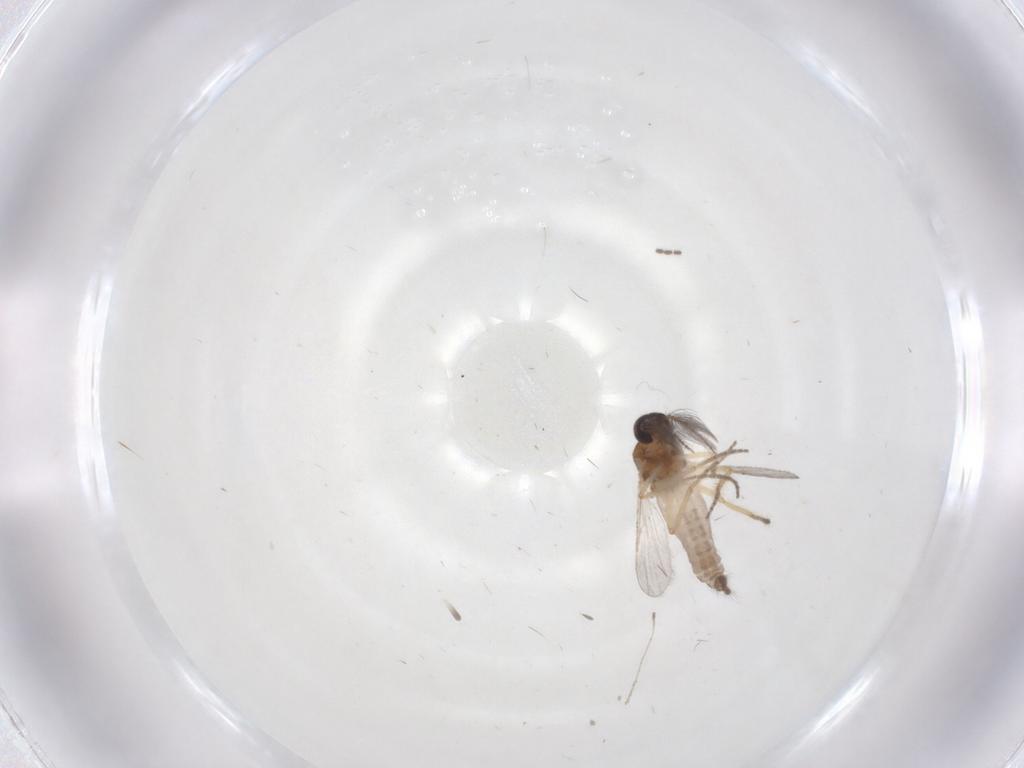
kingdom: Animalia
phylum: Arthropoda
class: Insecta
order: Diptera
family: Ceratopogonidae
